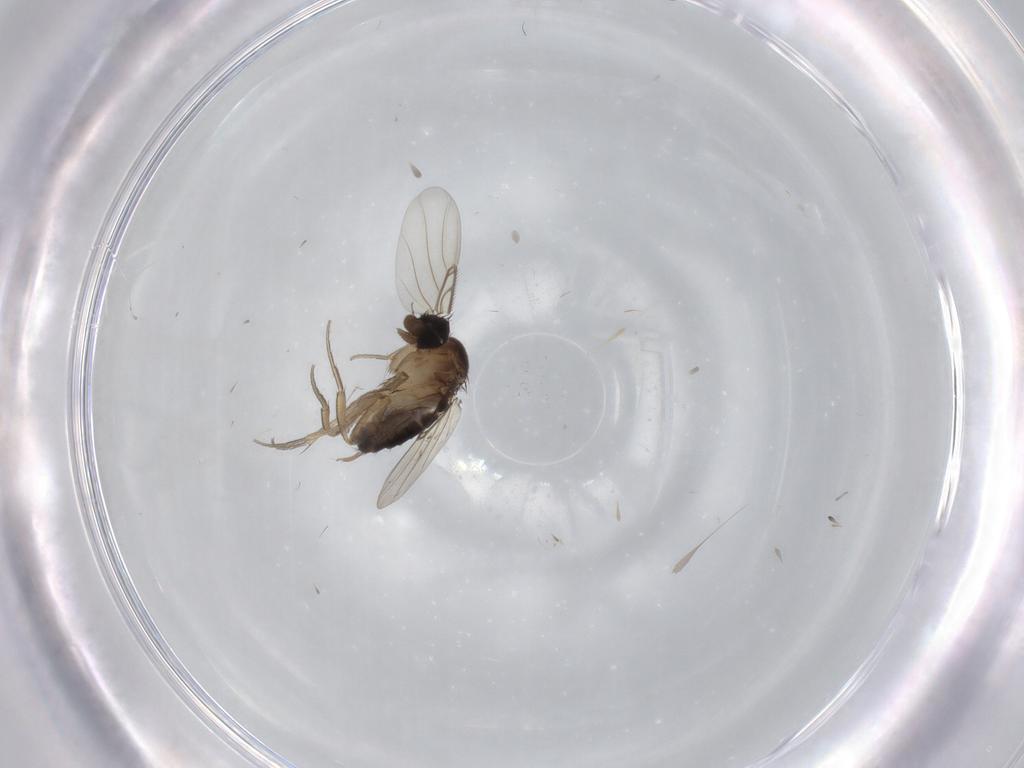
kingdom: Animalia
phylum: Arthropoda
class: Insecta
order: Diptera
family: Phoridae
